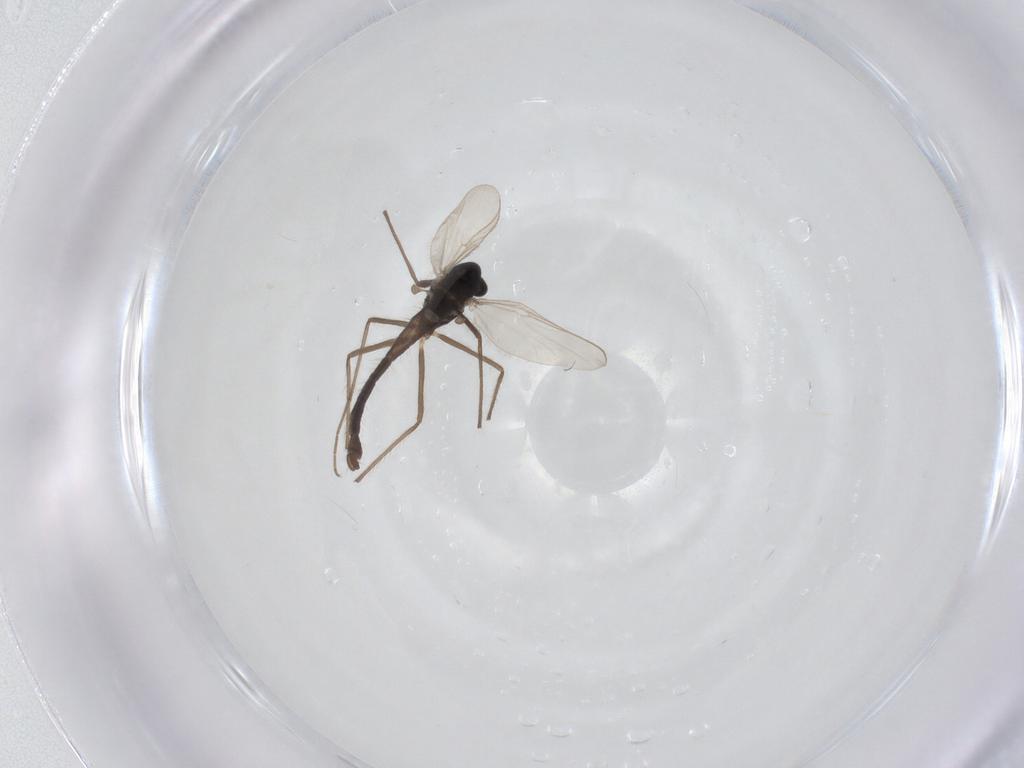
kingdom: Animalia
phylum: Arthropoda
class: Insecta
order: Diptera
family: Chironomidae
